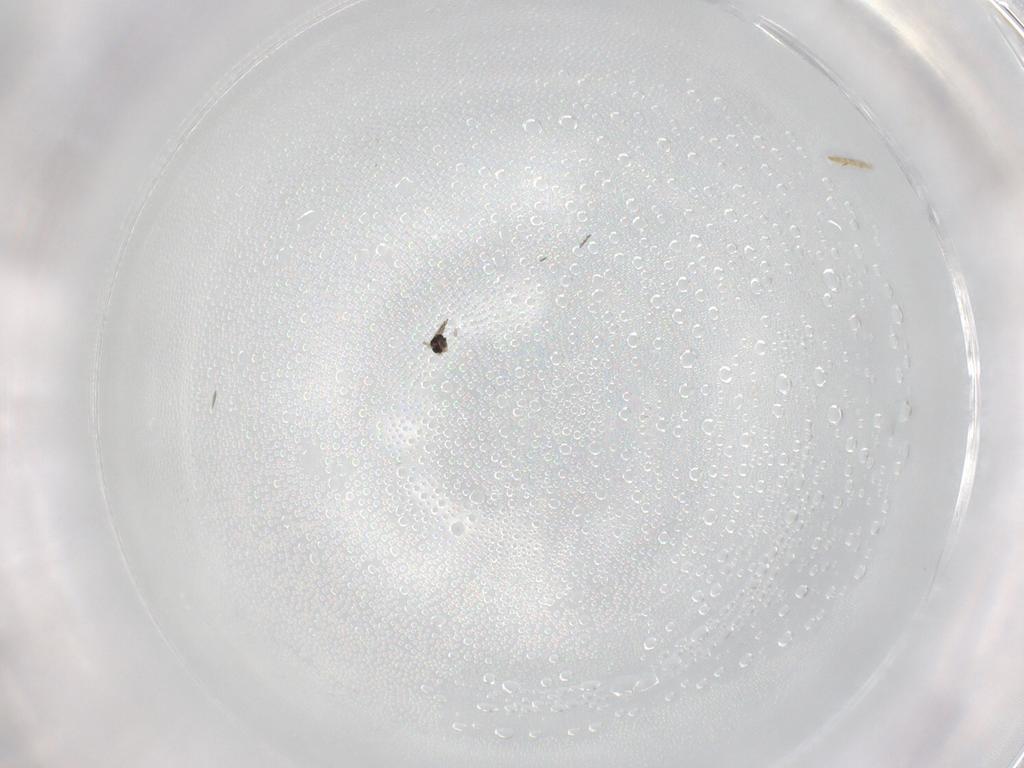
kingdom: Animalia
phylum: Arthropoda
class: Insecta
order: Diptera
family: Cecidomyiidae
